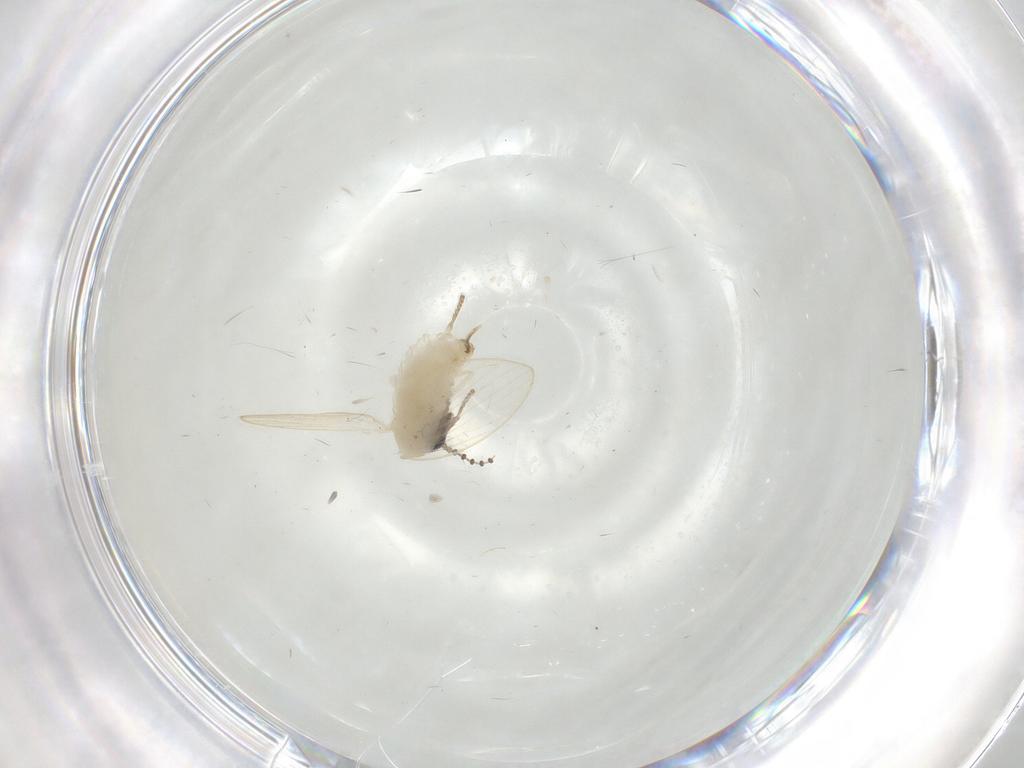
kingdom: Animalia
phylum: Arthropoda
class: Insecta
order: Diptera
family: Psychodidae
